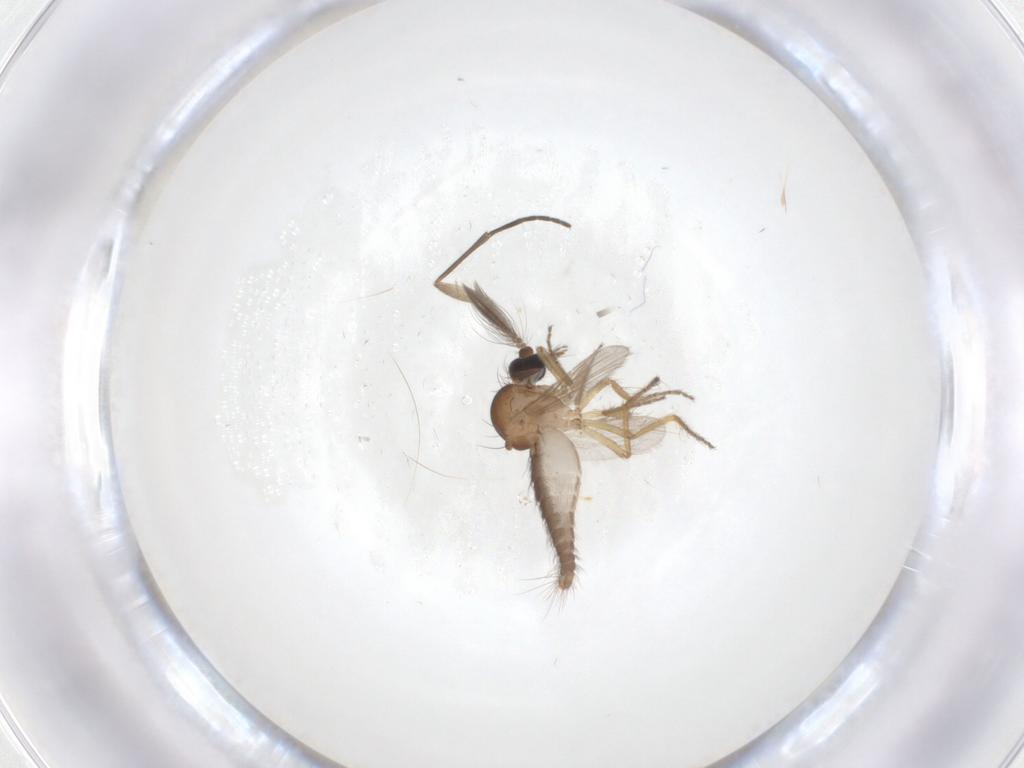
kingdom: Animalia
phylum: Arthropoda
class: Insecta
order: Diptera
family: Ceratopogonidae
